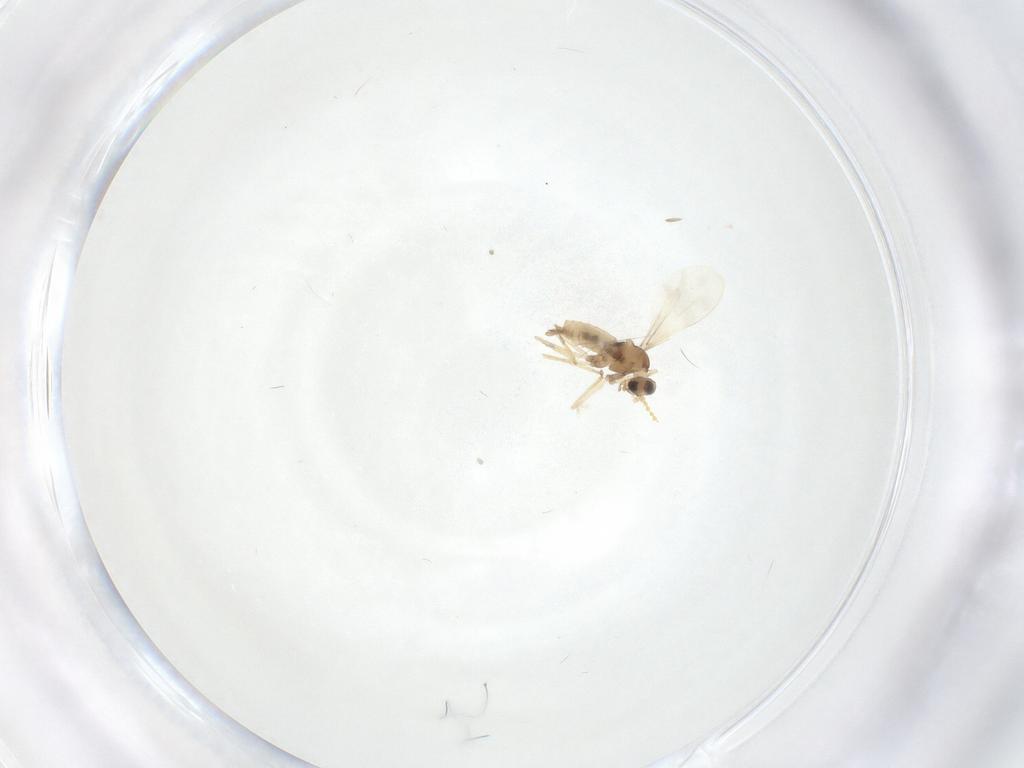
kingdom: Animalia
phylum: Arthropoda
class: Insecta
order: Diptera
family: Cecidomyiidae
